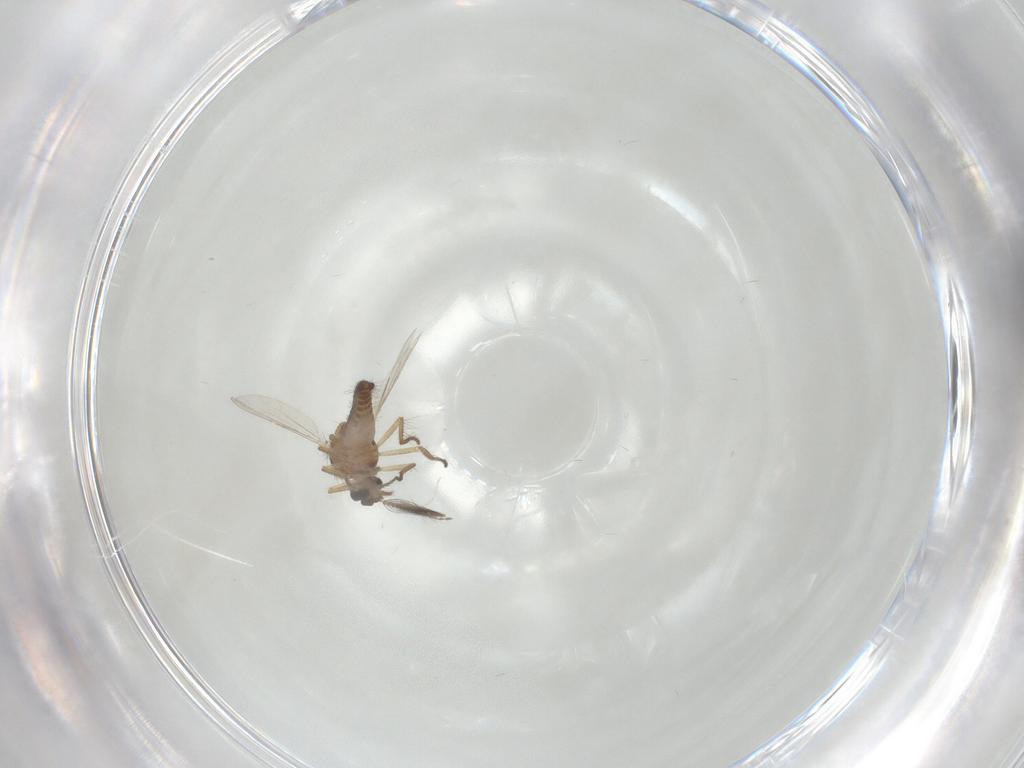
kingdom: Animalia
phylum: Arthropoda
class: Insecta
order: Diptera
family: Ceratopogonidae
